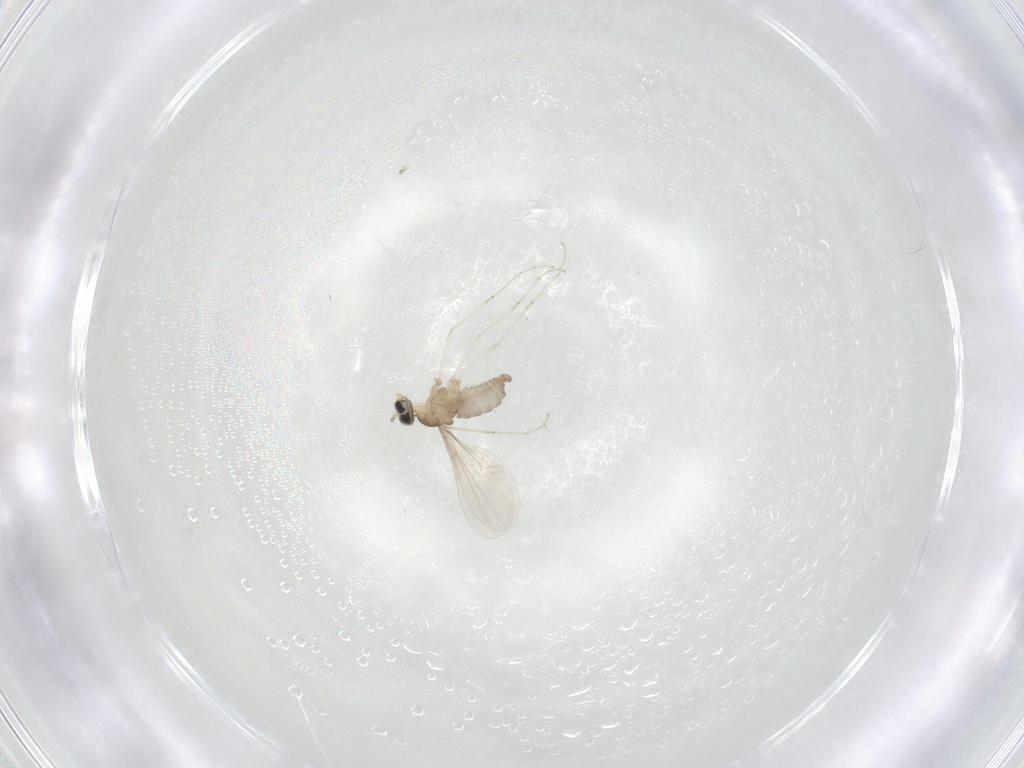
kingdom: Animalia
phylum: Arthropoda
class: Insecta
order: Diptera
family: Cecidomyiidae
